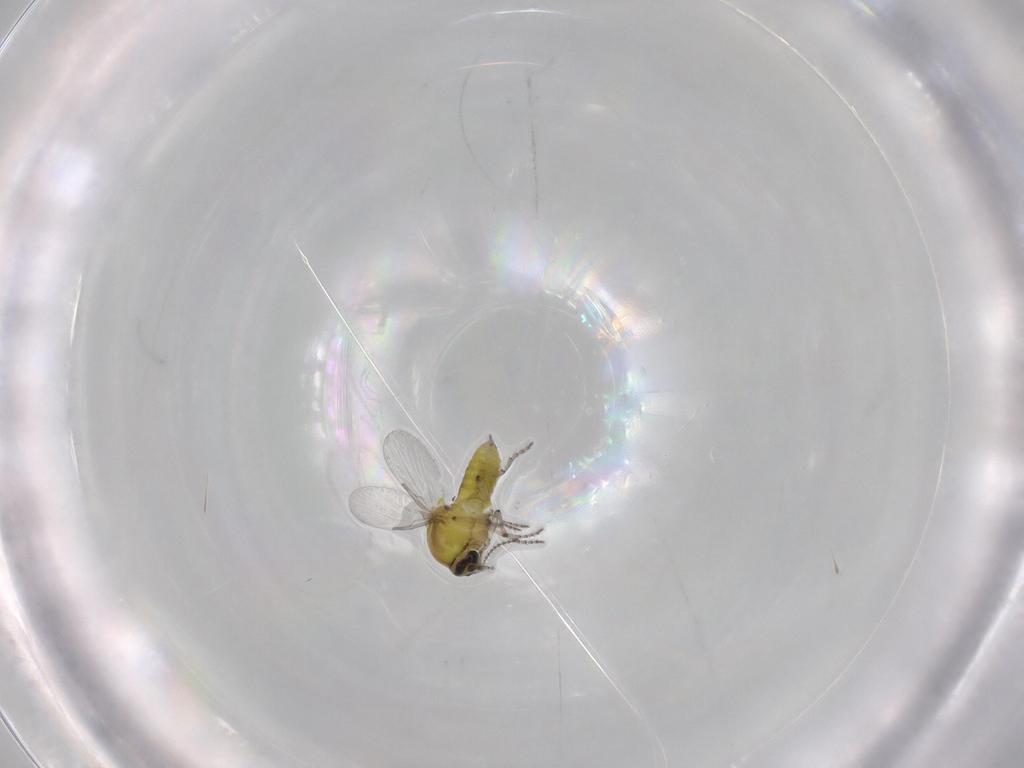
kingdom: Animalia
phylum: Arthropoda
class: Insecta
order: Diptera
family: Ceratopogonidae
